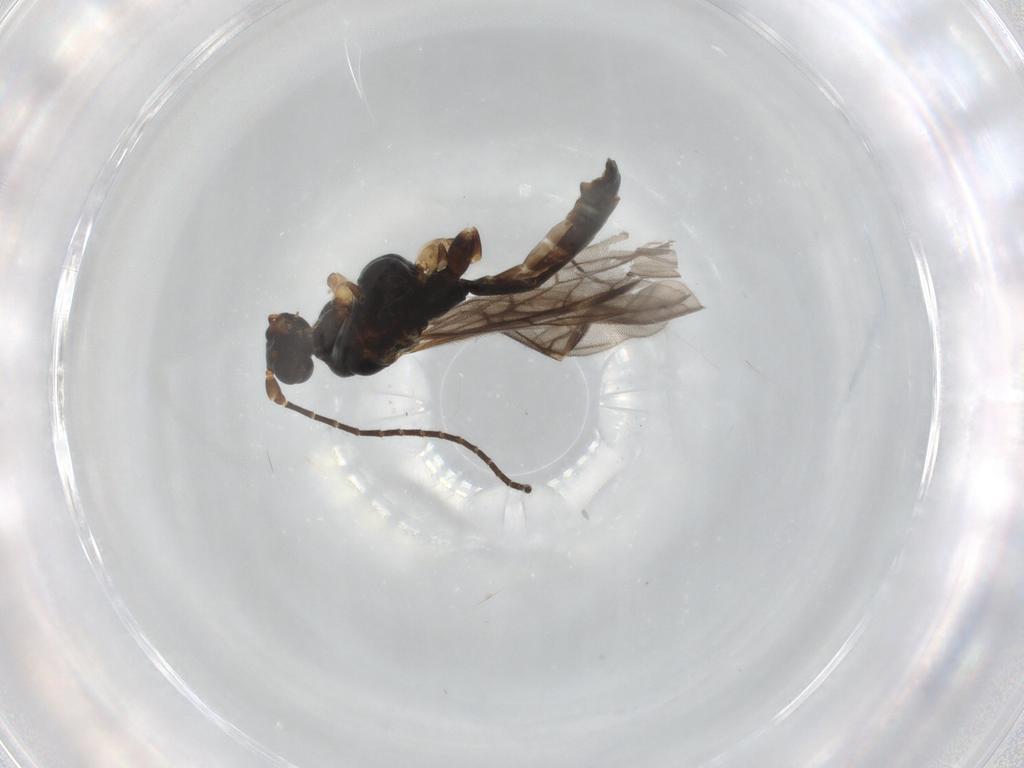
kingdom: Animalia
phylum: Arthropoda
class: Insecta
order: Hymenoptera
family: Braconidae
